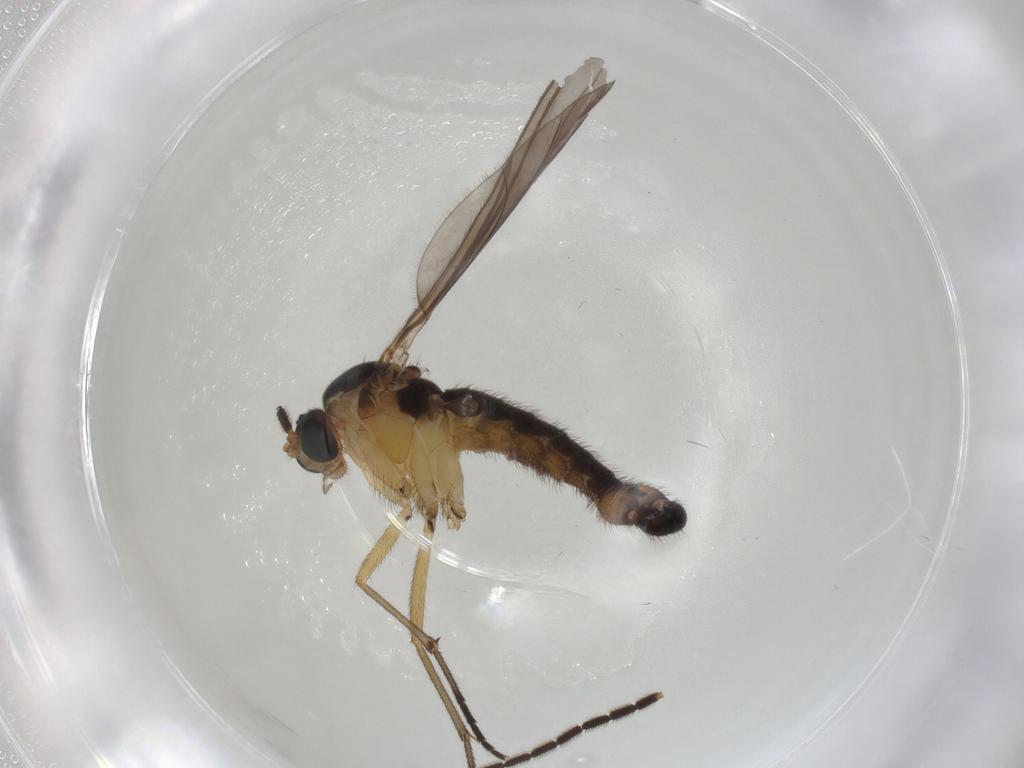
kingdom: Animalia
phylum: Arthropoda
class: Insecta
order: Diptera
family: Sciaridae
